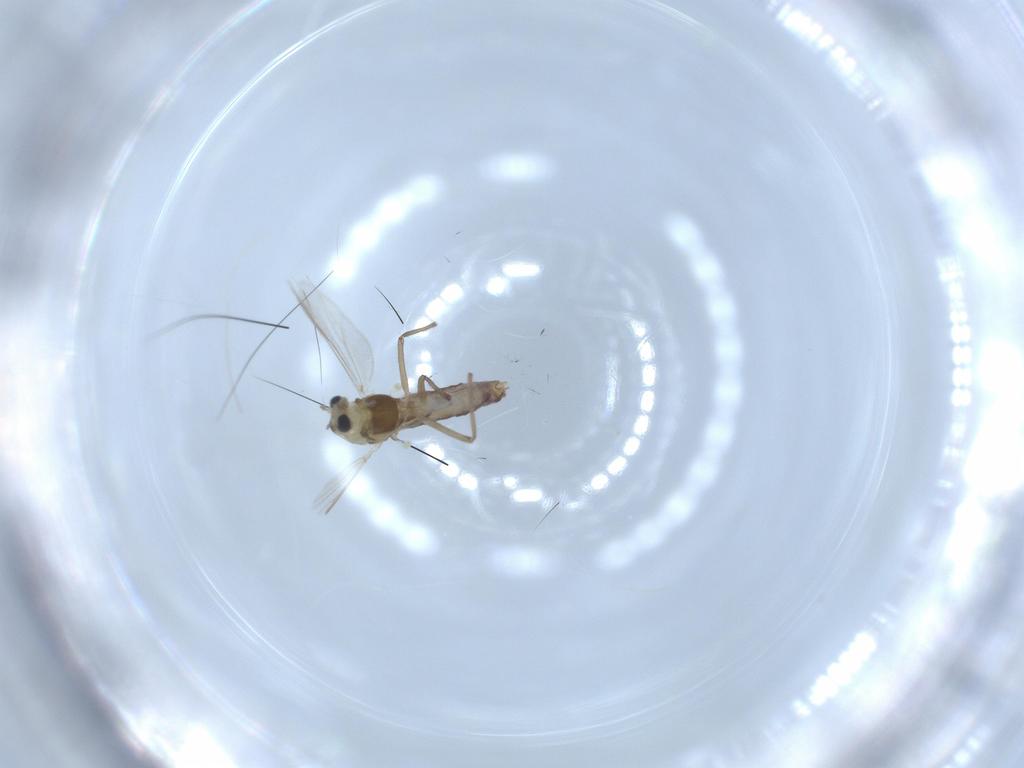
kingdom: Animalia
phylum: Arthropoda
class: Insecta
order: Diptera
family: Chironomidae
